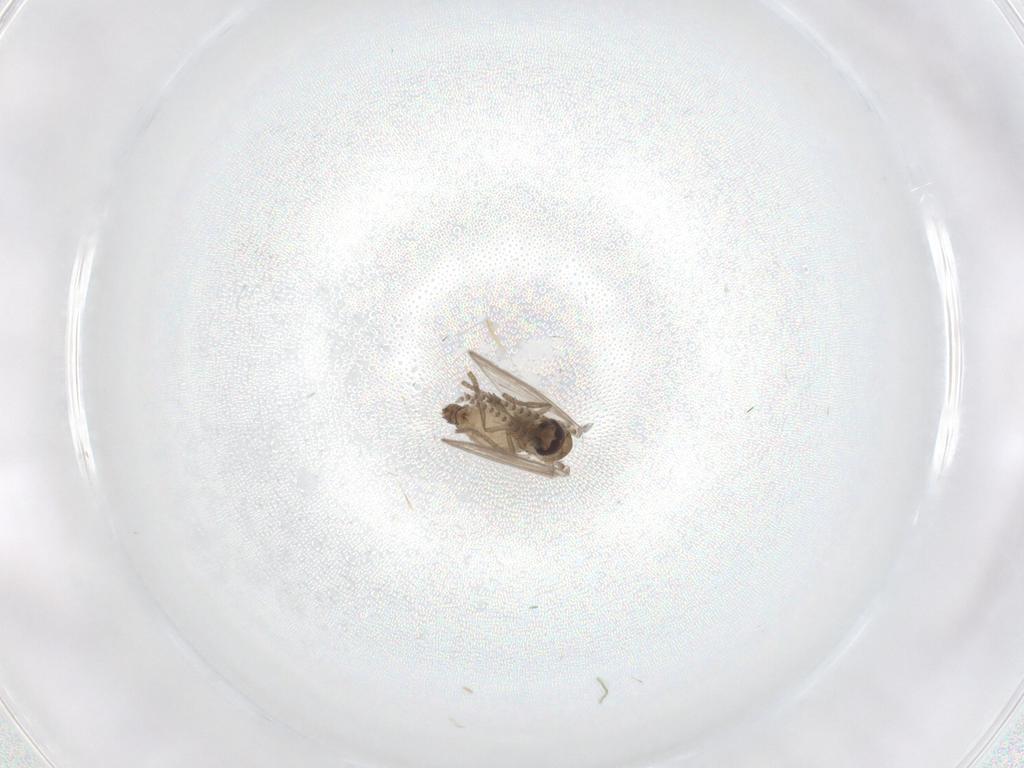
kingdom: Animalia
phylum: Arthropoda
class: Insecta
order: Diptera
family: Psychodidae
